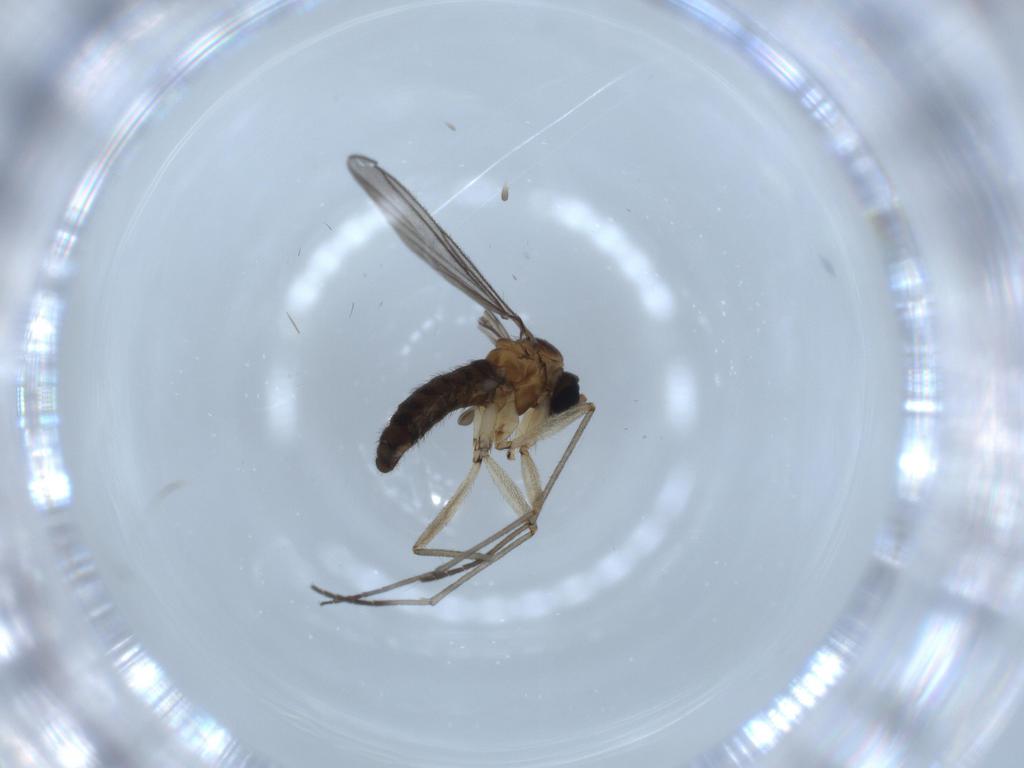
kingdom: Animalia
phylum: Arthropoda
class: Insecta
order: Diptera
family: Sciaridae
